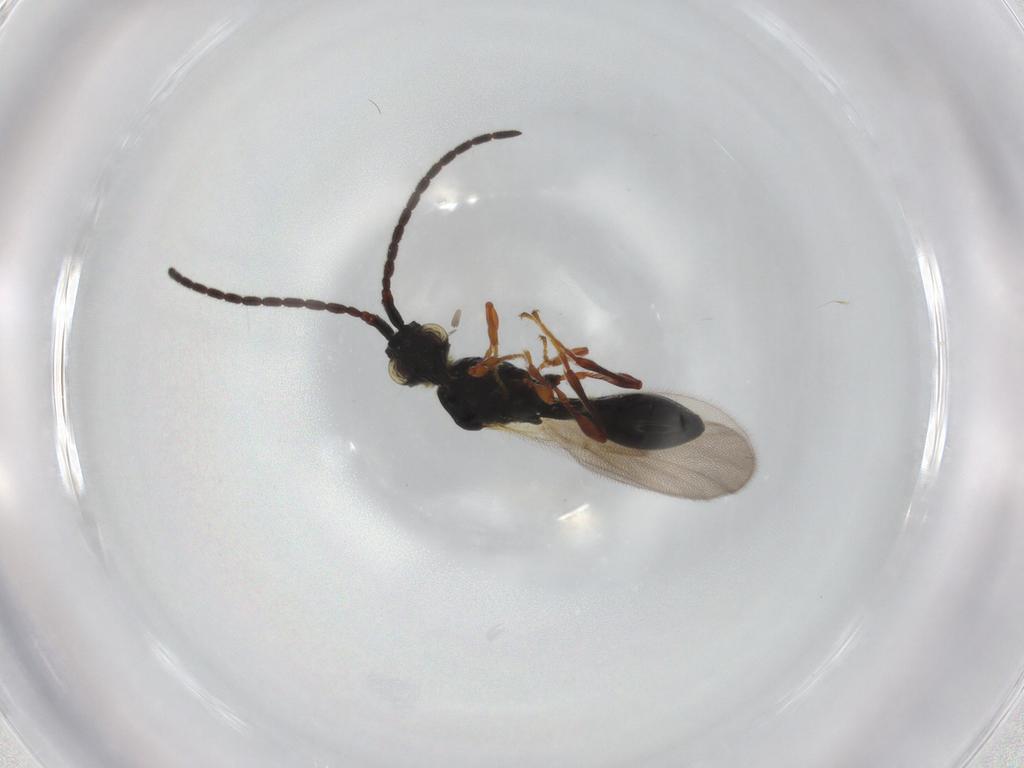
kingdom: Animalia
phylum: Arthropoda
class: Insecta
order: Hymenoptera
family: Diapriidae
